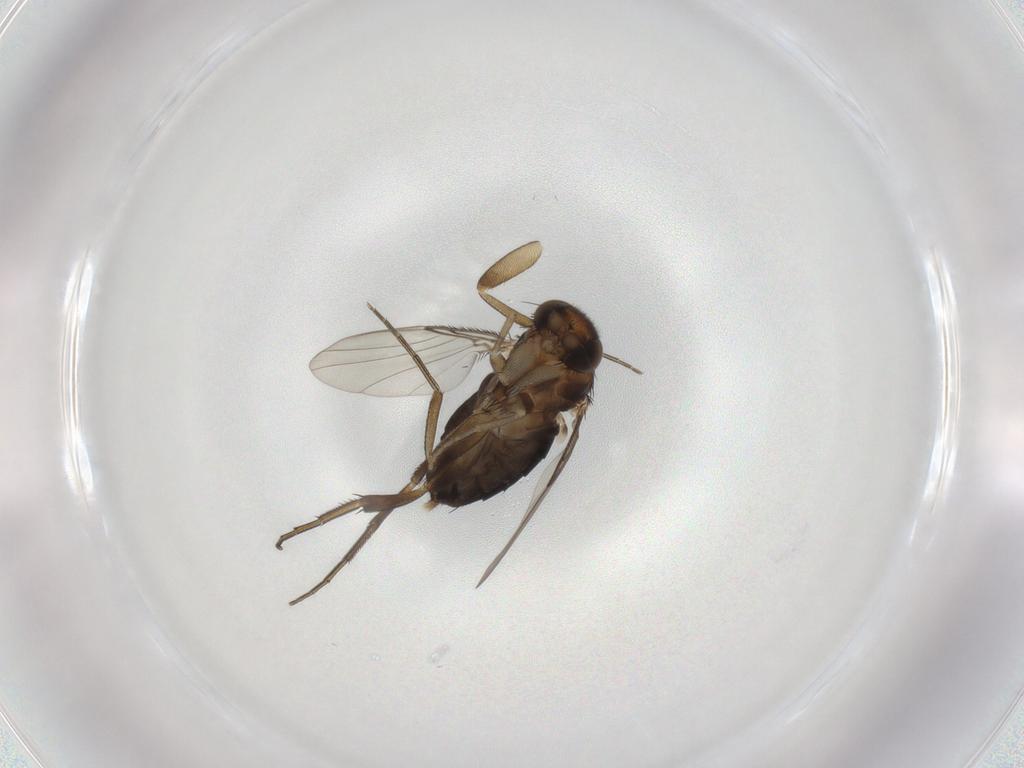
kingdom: Animalia
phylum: Arthropoda
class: Insecta
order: Diptera
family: Phoridae
